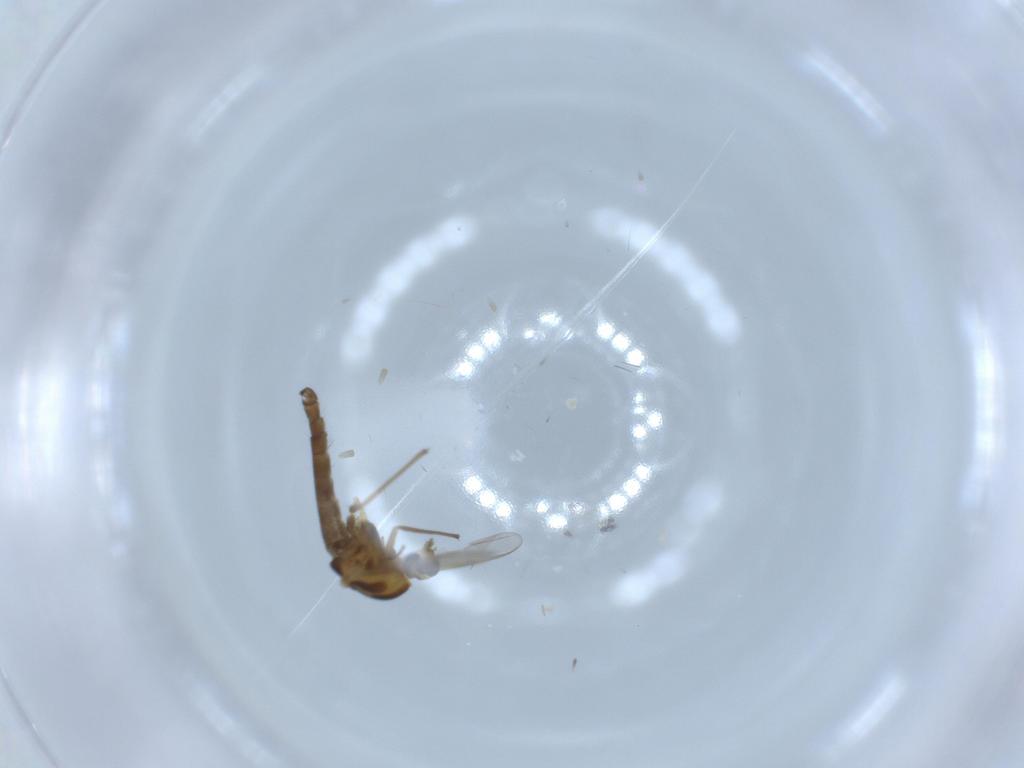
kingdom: Animalia
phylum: Arthropoda
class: Insecta
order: Diptera
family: Chironomidae
